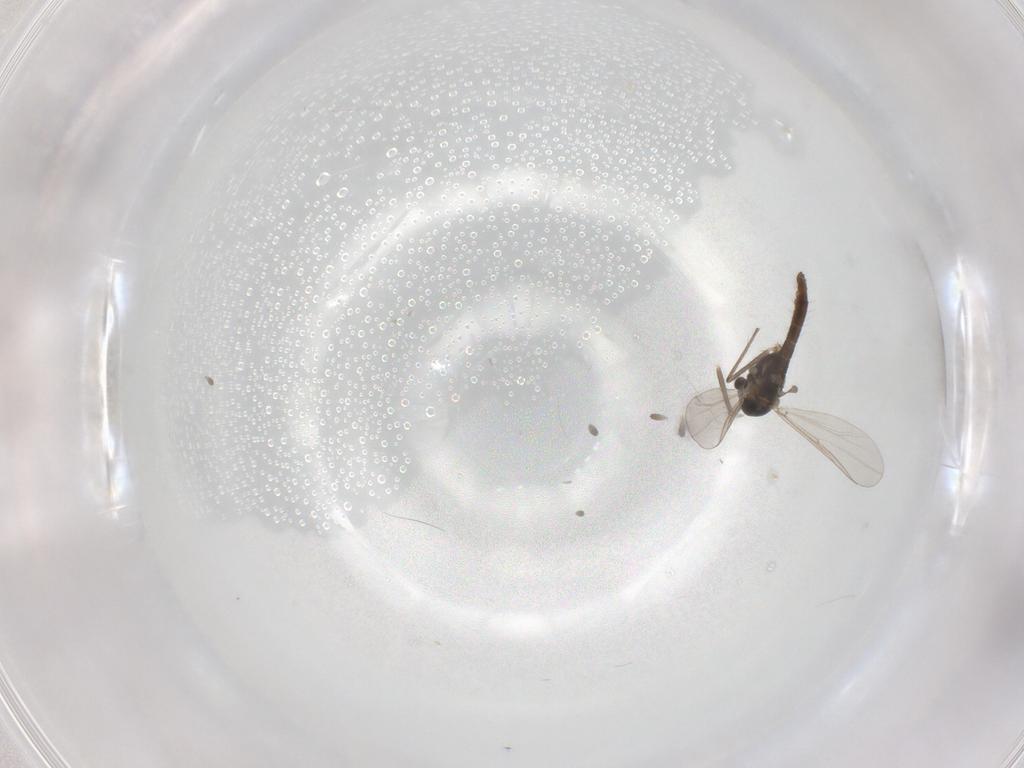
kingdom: Animalia
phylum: Arthropoda
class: Insecta
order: Diptera
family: Chironomidae
